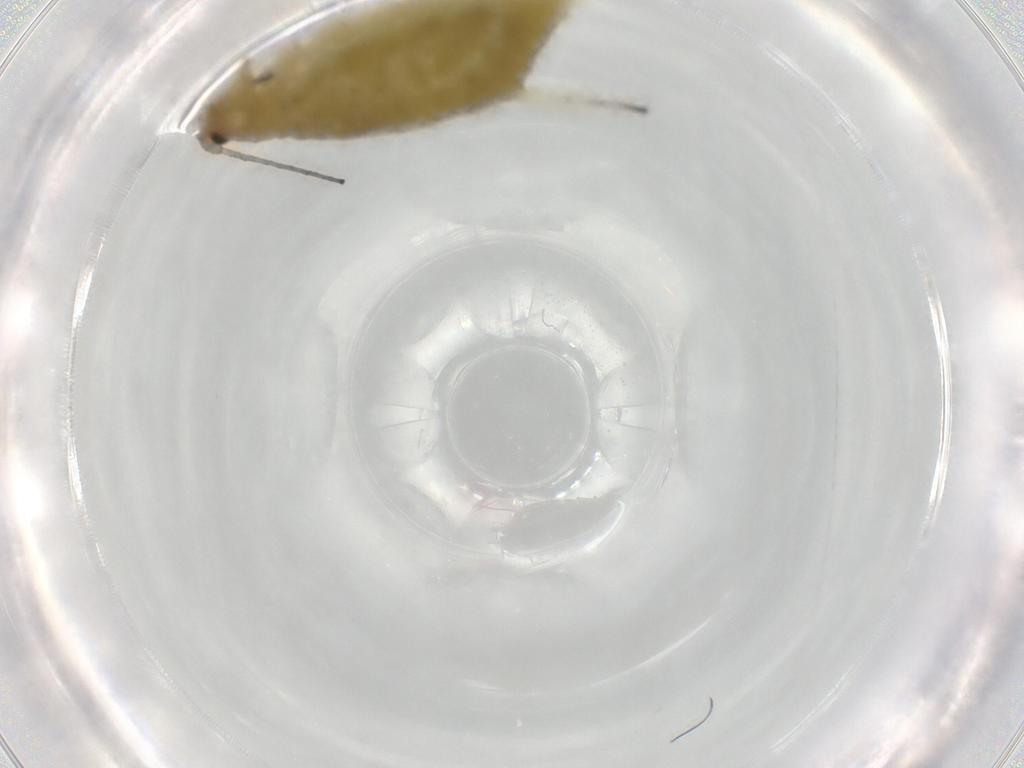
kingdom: Animalia
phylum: Arthropoda
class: Insecta
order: Hemiptera
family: Aphididae
